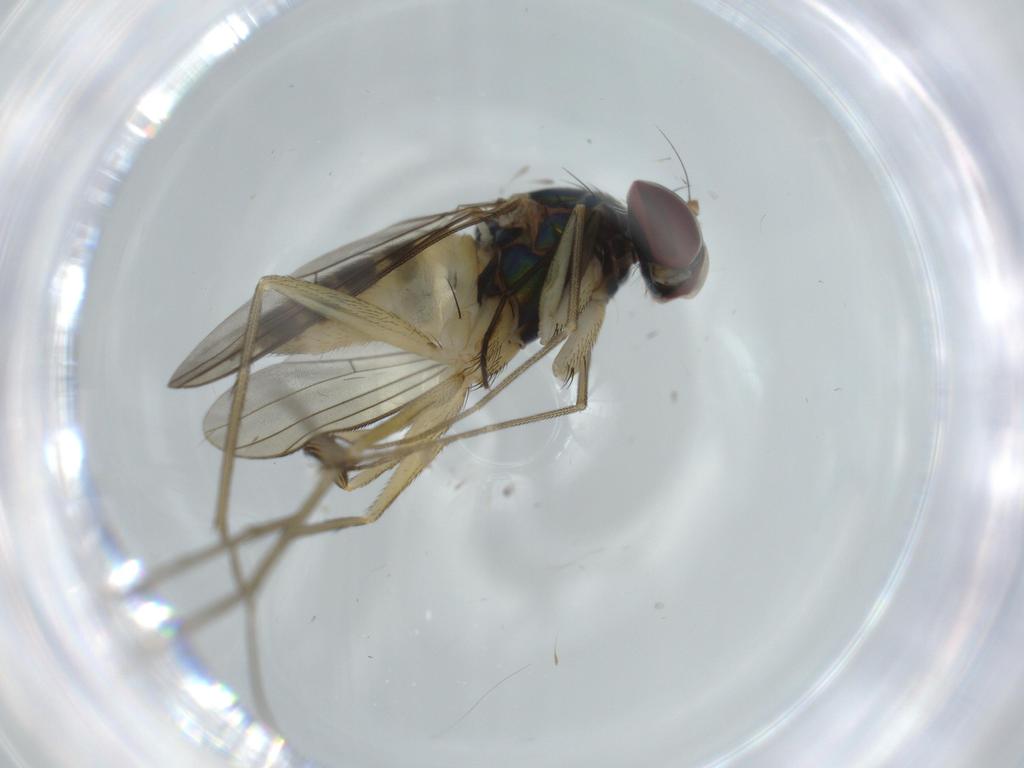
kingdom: Animalia
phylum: Arthropoda
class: Insecta
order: Diptera
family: Dolichopodidae
